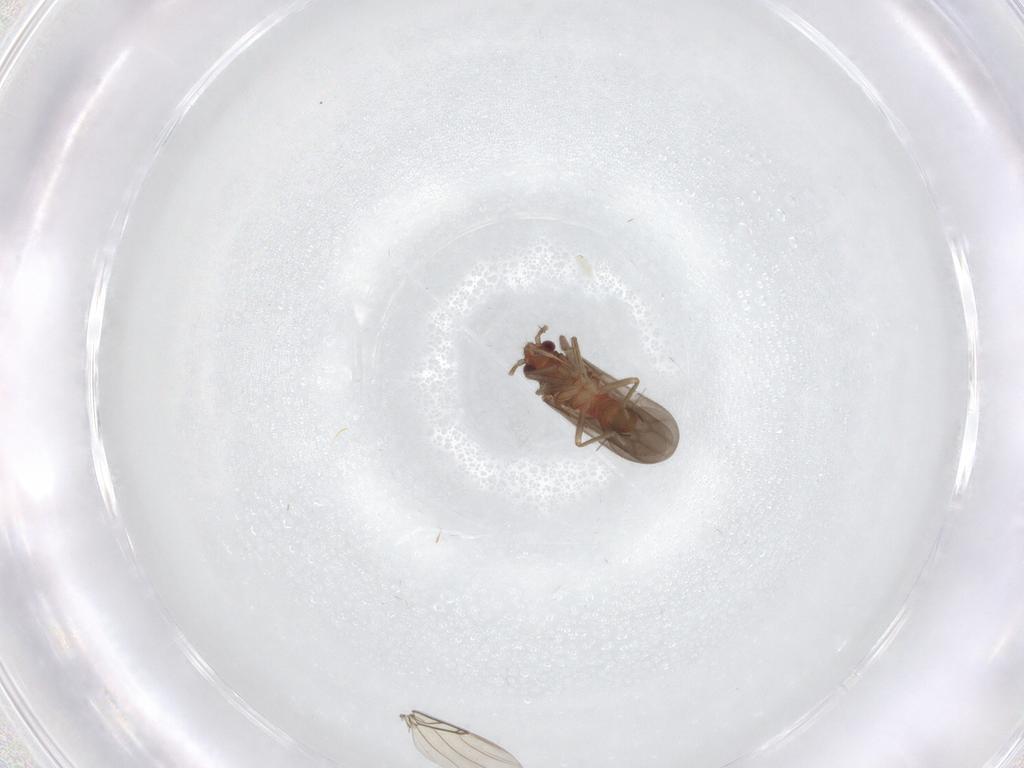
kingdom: Animalia
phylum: Arthropoda
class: Insecta
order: Hemiptera
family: Ceratocombidae
